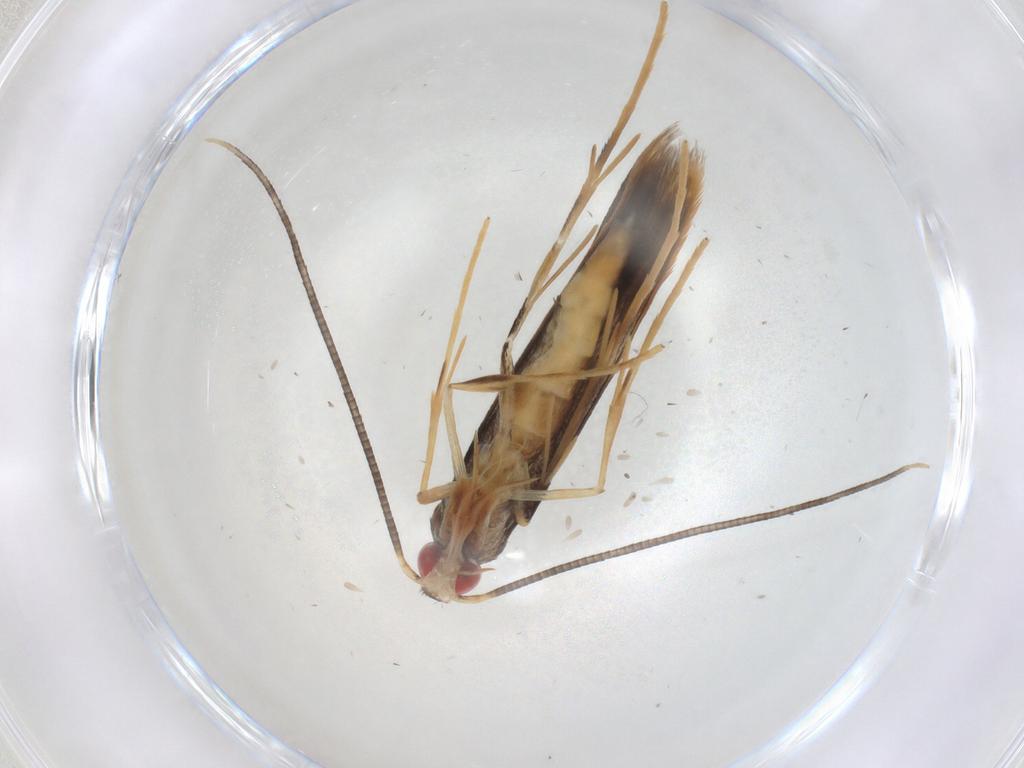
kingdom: Animalia
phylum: Arthropoda
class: Insecta
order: Lepidoptera
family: Gracillariidae
